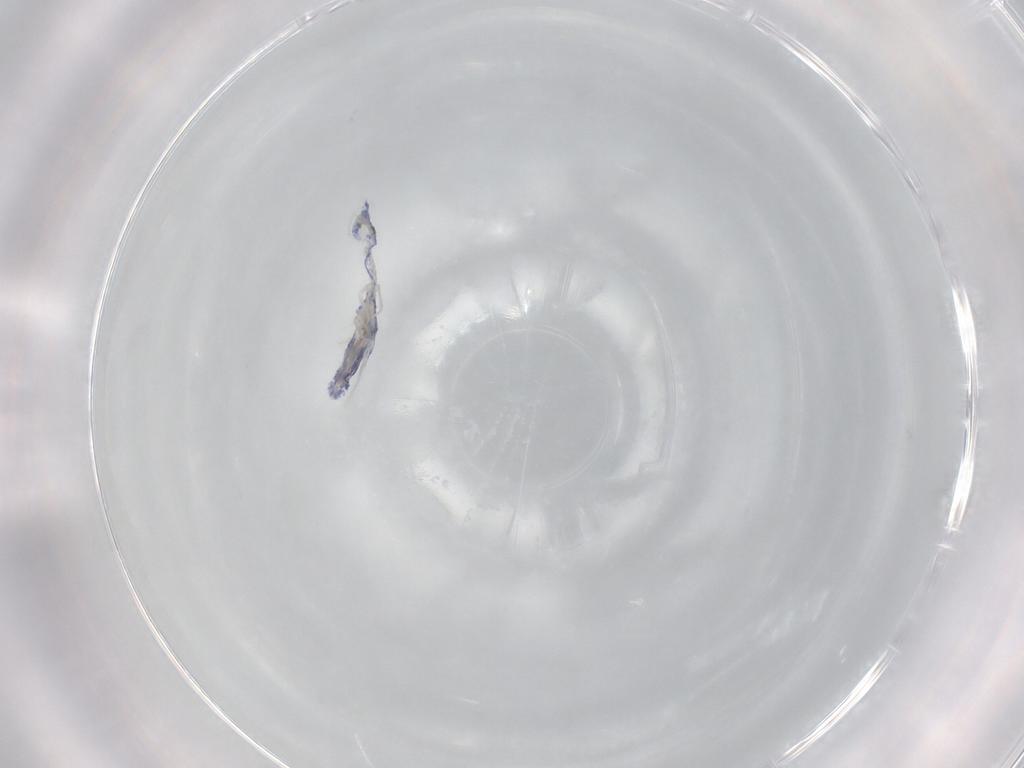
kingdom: Animalia
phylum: Arthropoda
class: Collembola
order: Entomobryomorpha
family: Entomobryidae
